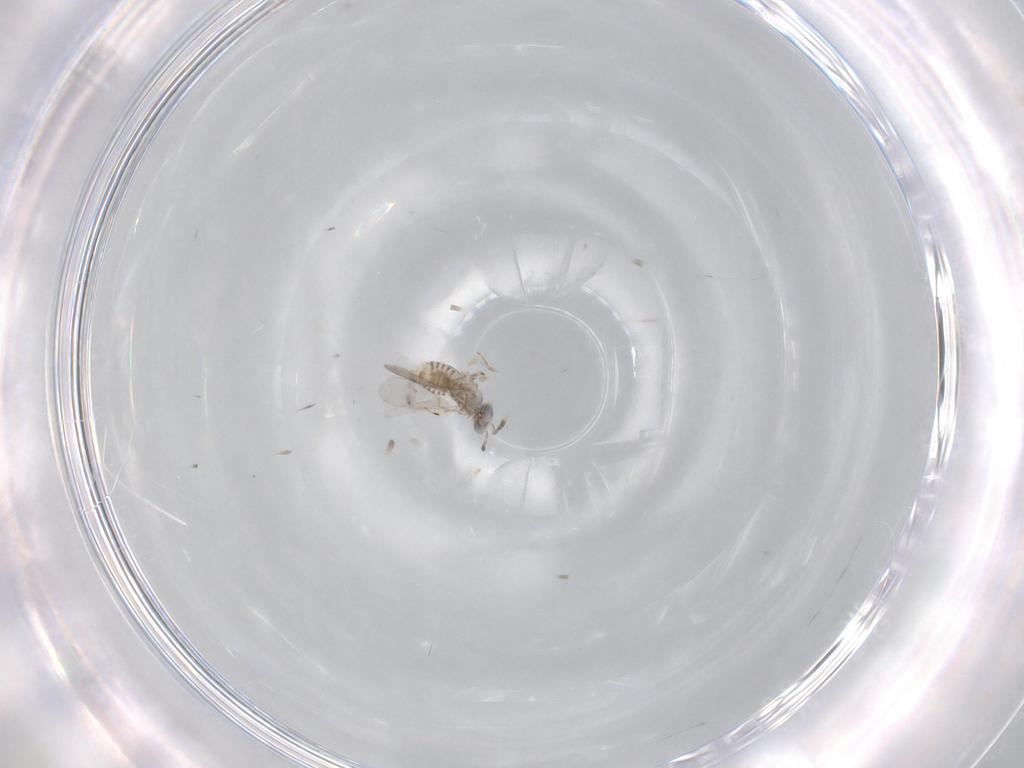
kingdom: Animalia
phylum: Arthropoda
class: Insecta
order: Hymenoptera
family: Aphelinidae
